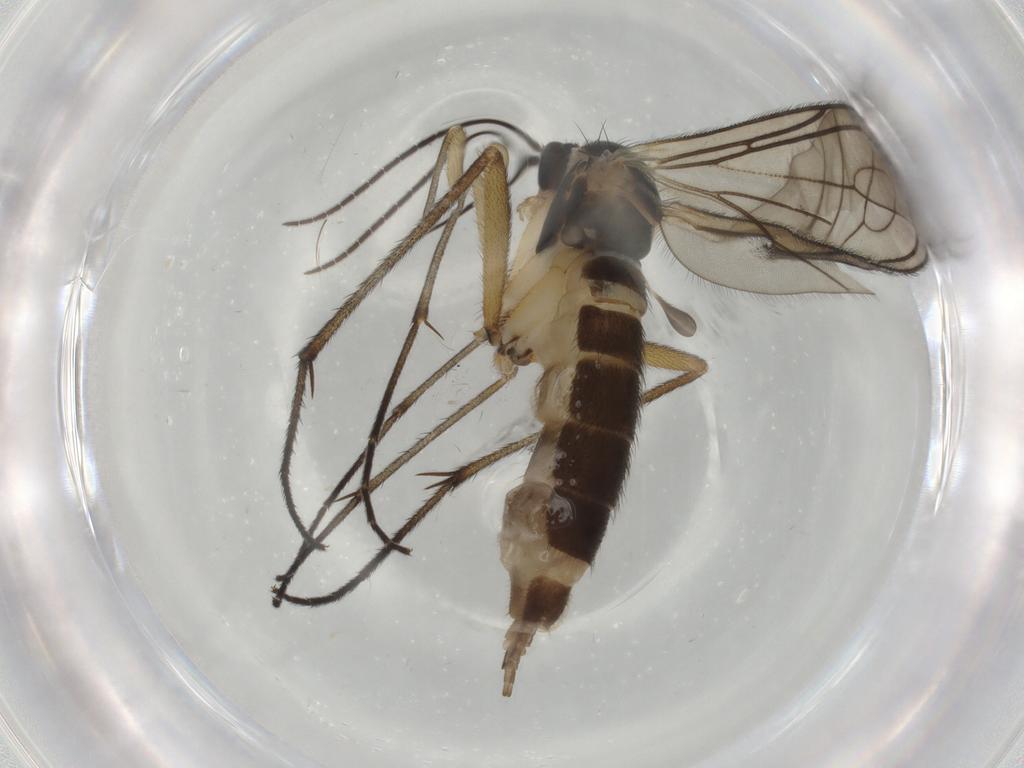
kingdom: Animalia
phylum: Arthropoda
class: Insecta
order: Diptera
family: Sciaridae
